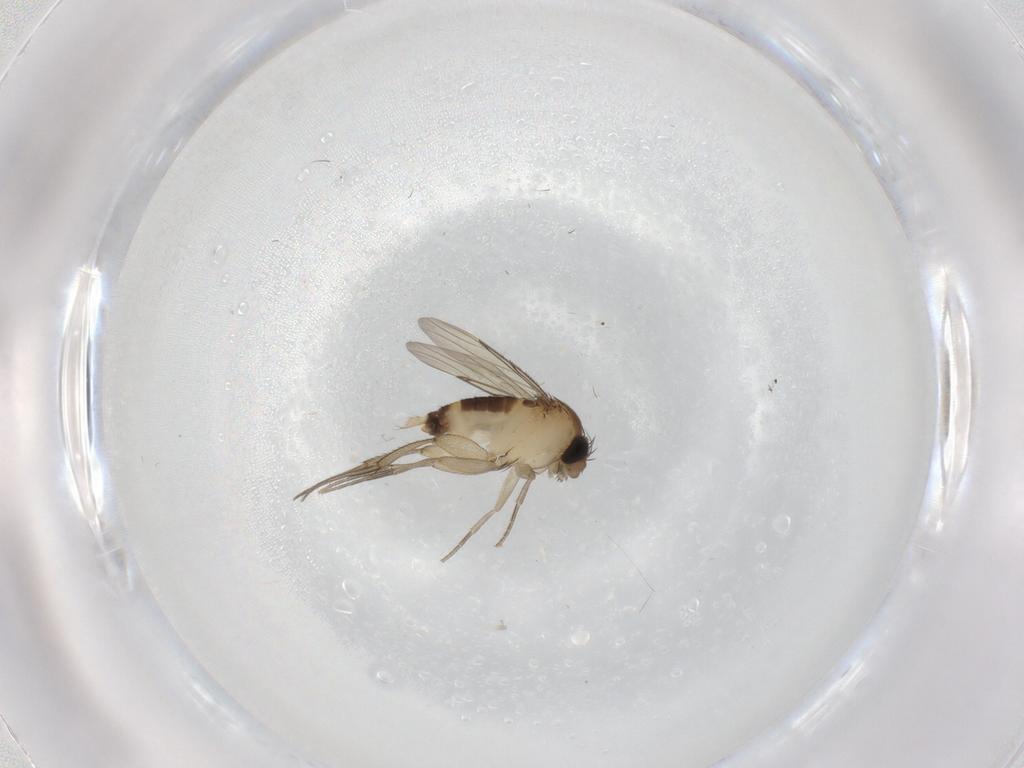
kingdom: Animalia
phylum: Arthropoda
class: Insecta
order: Diptera
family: Phoridae
